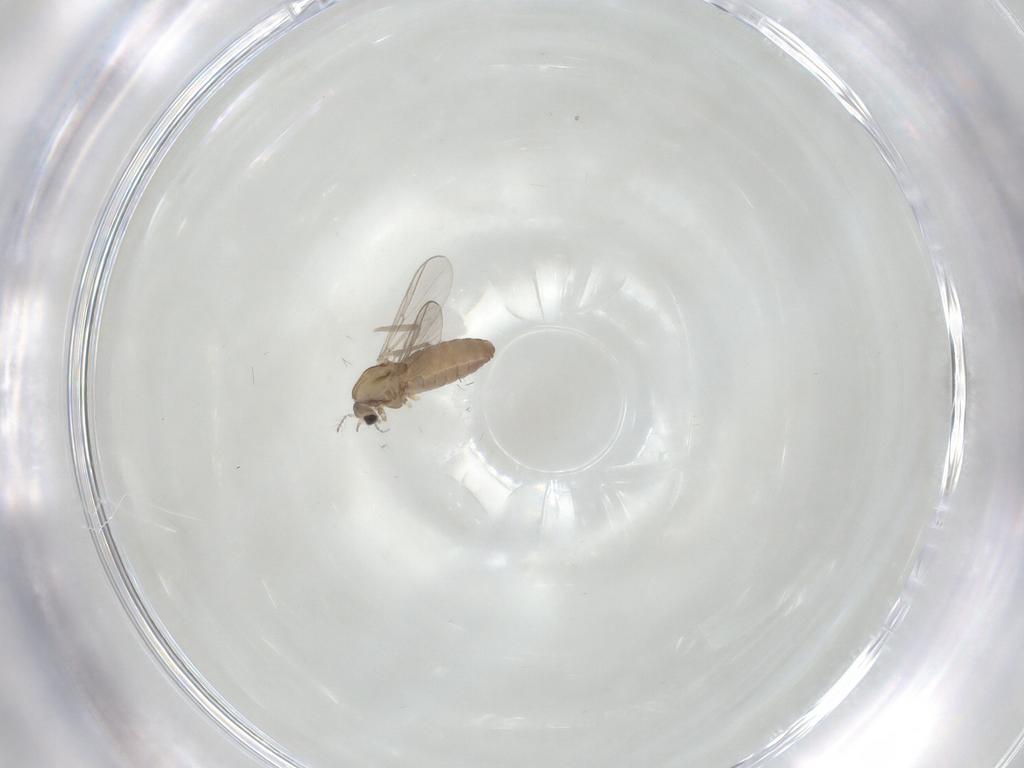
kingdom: Animalia
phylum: Arthropoda
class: Insecta
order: Diptera
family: Chironomidae
